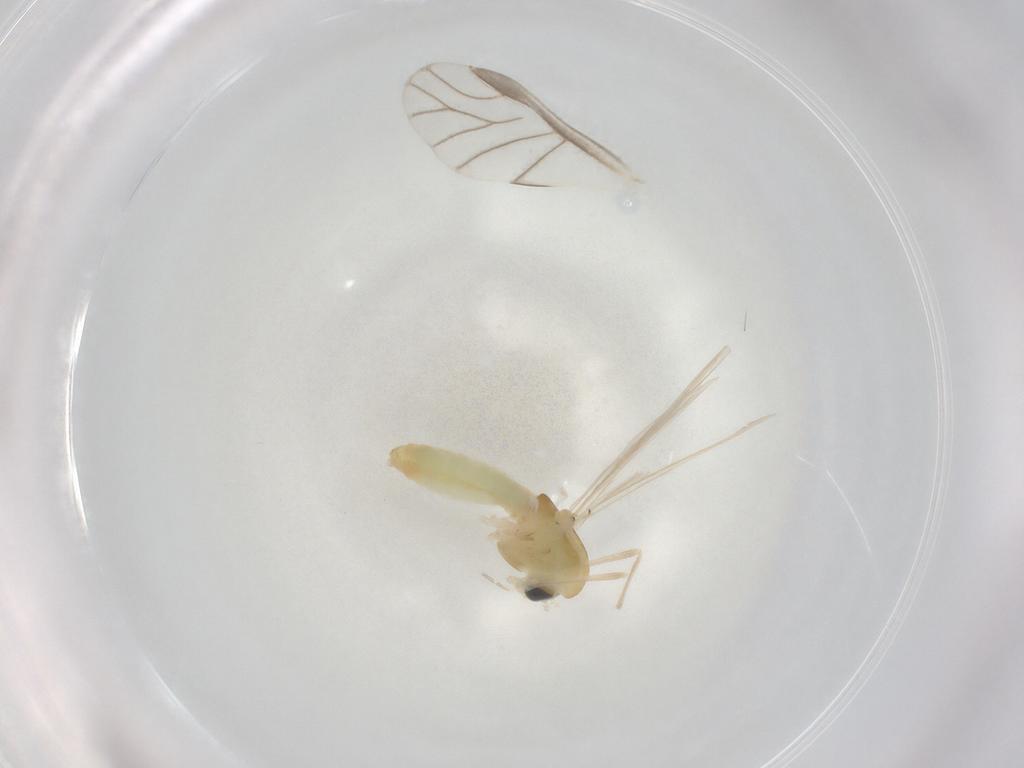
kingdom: Animalia
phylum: Arthropoda
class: Insecta
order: Diptera
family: Chironomidae
